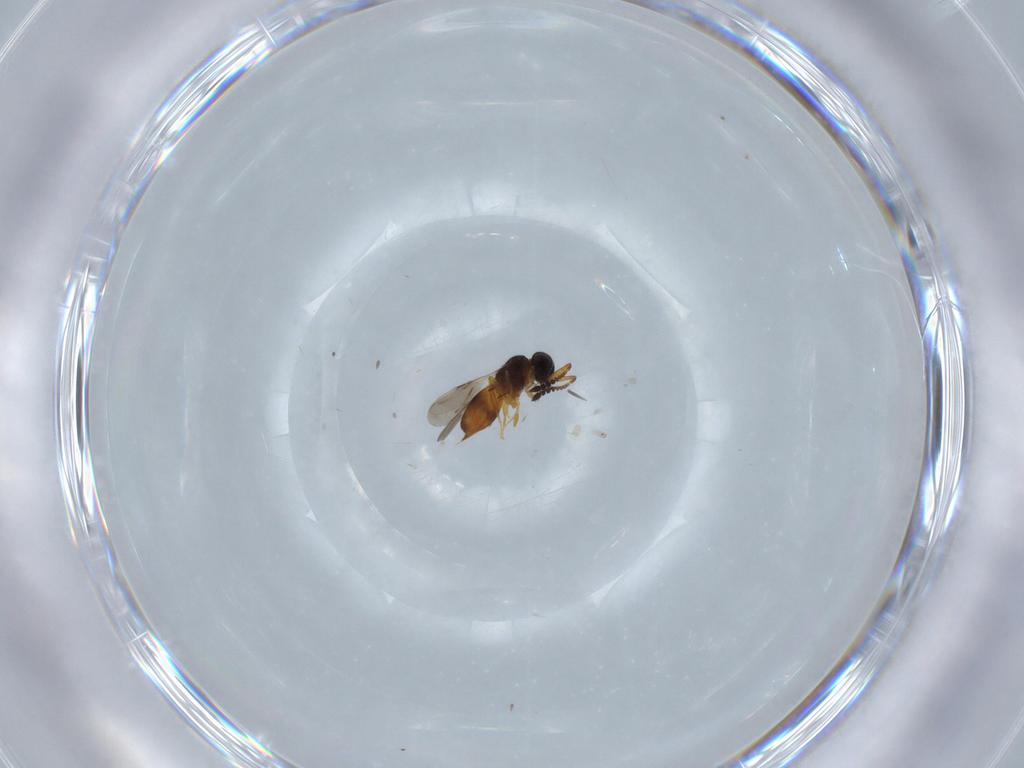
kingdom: Animalia
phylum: Arthropoda
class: Insecta
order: Hymenoptera
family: Ceraphronidae
